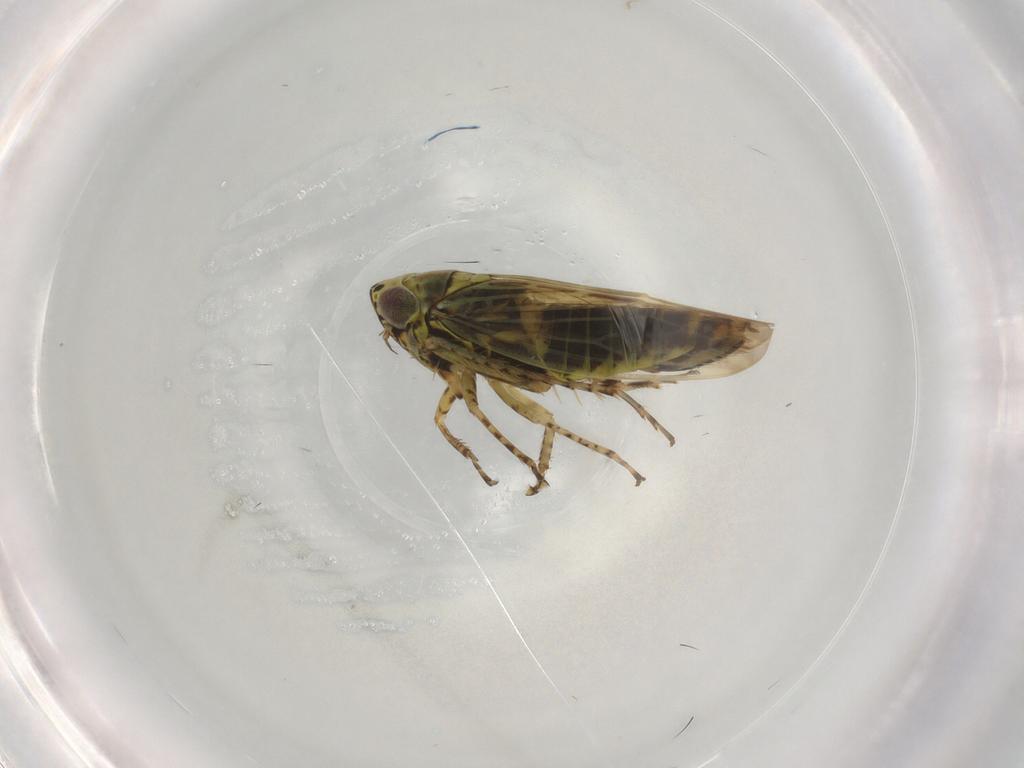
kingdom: Animalia
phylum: Arthropoda
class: Insecta
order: Hemiptera
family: Cicadellidae
